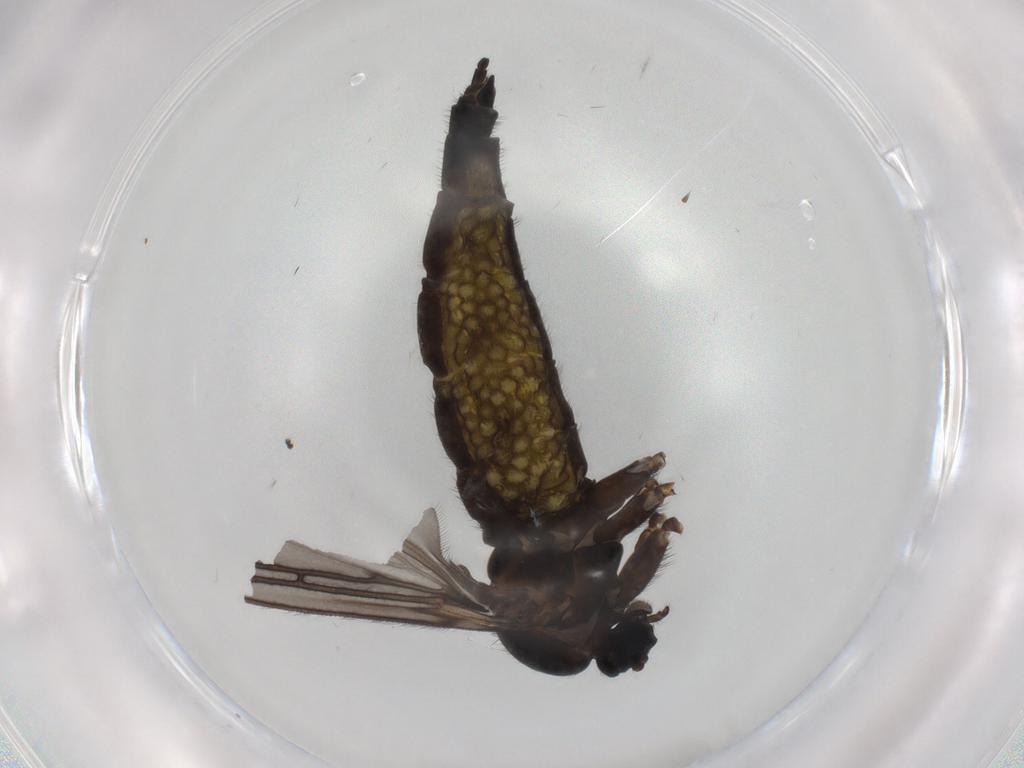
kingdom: Animalia
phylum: Arthropoda
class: Insecta
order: Diptera
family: Sciaridae
